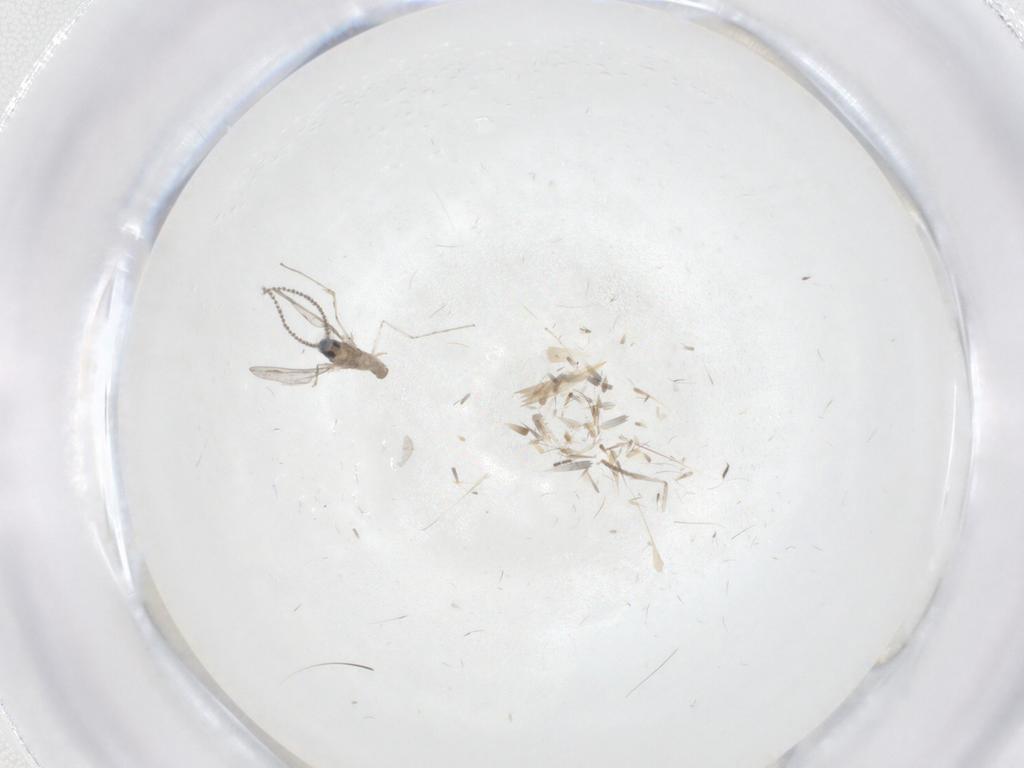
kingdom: Animalia
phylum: Arthropoda
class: Insecta
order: Diptera
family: Cecidomyiidae
